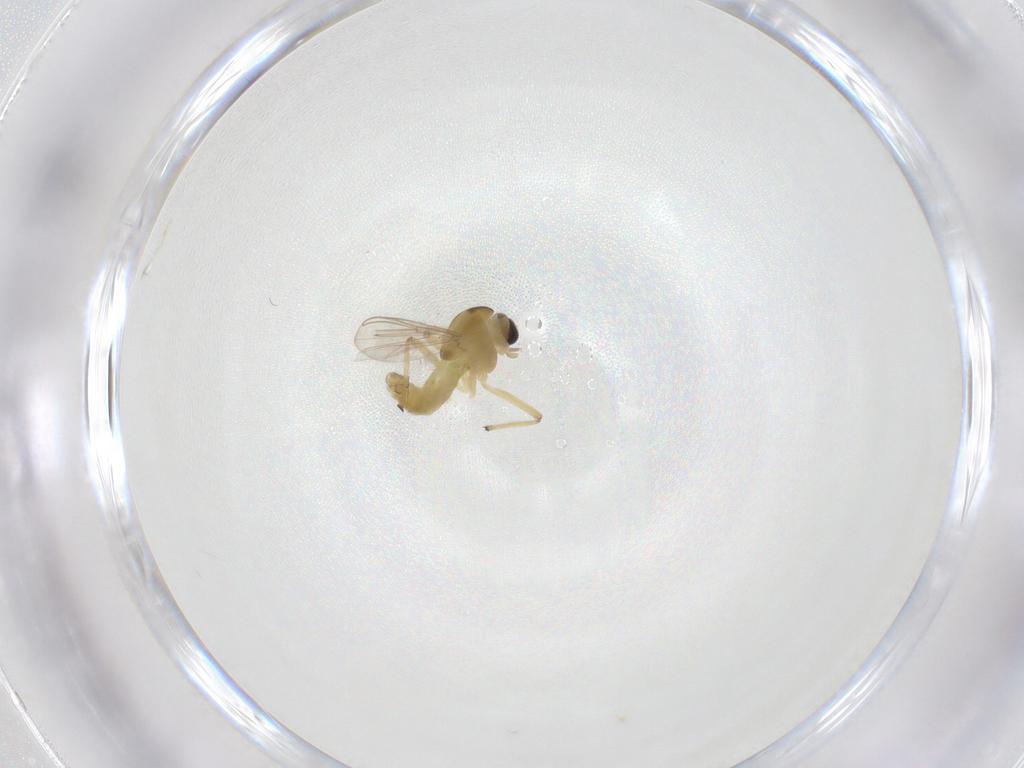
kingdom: Animalia
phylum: Arthropoda
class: Insecta
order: Diptera
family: Chironomidae
